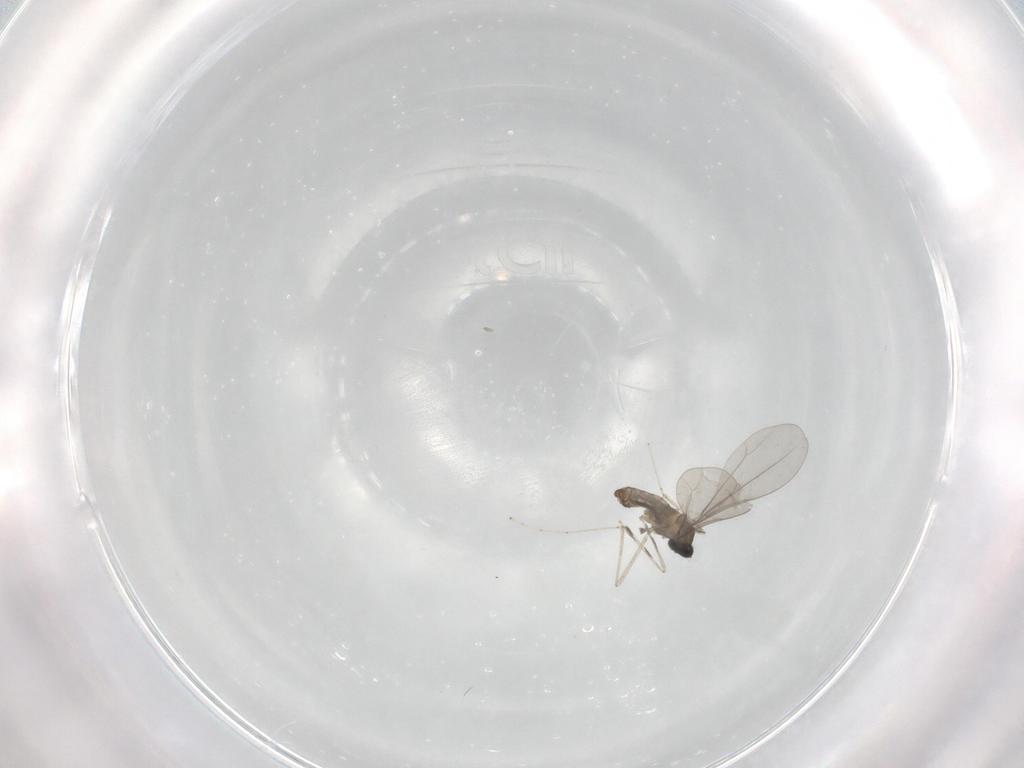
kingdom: Animalia
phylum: Arthropoda
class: Insecta
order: Diptera
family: Cecidomyiidae
